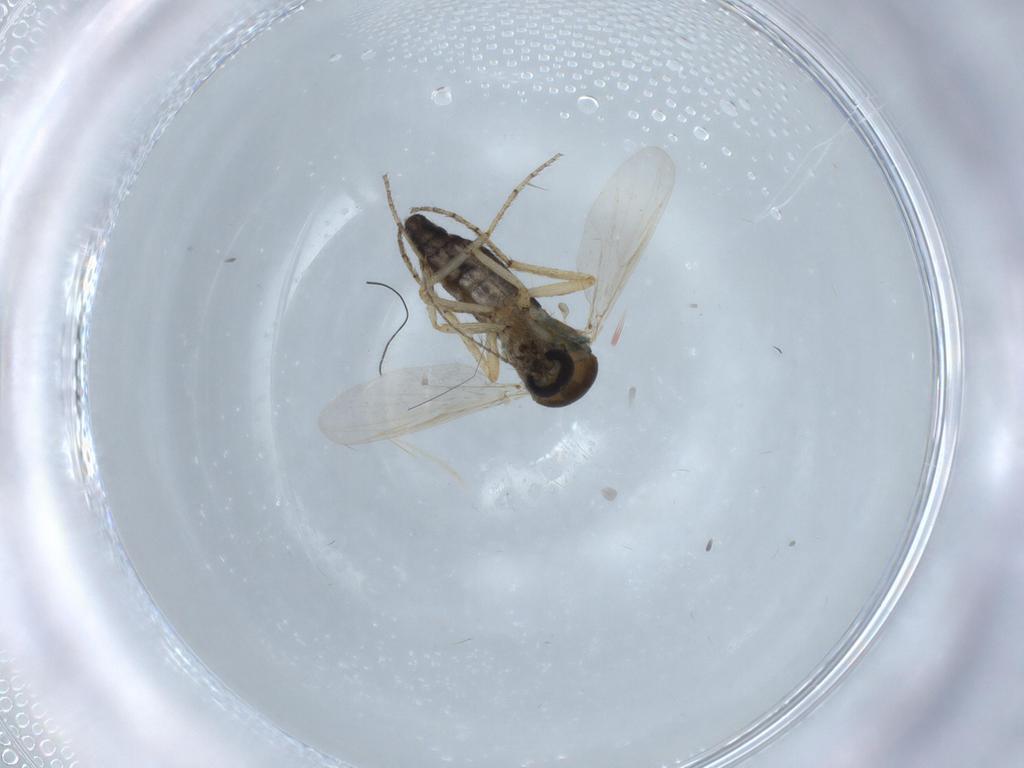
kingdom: Animalia
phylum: Arthropoda
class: Insecta
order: Diptera
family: Ceratopogonidae
